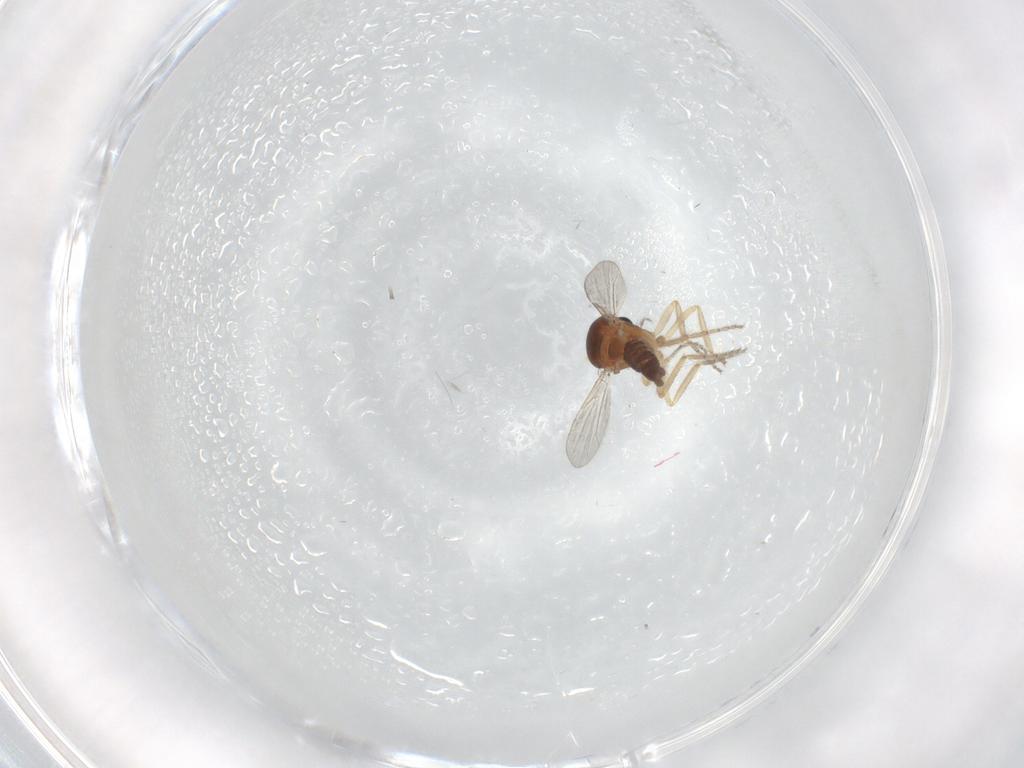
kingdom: Animalia
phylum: Arthropoda
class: Insecta
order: Diptera
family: Ceratopogonidae
